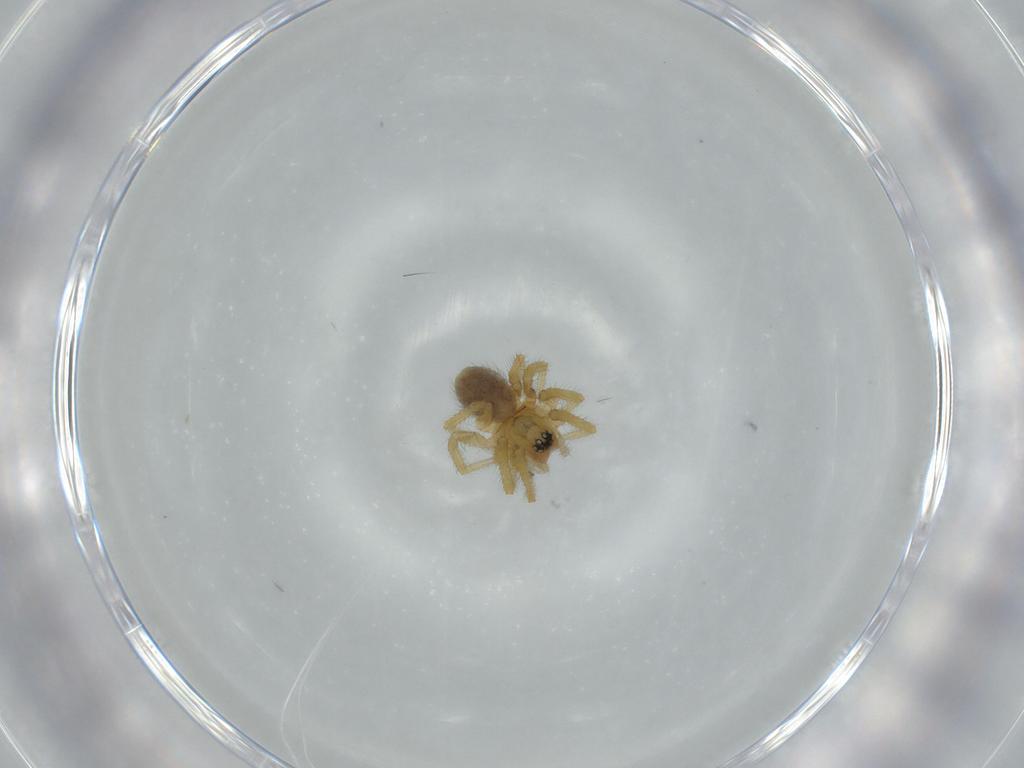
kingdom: Animalia
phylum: Arthropoda
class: Arachnida
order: Araneae
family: Linyphiidae
